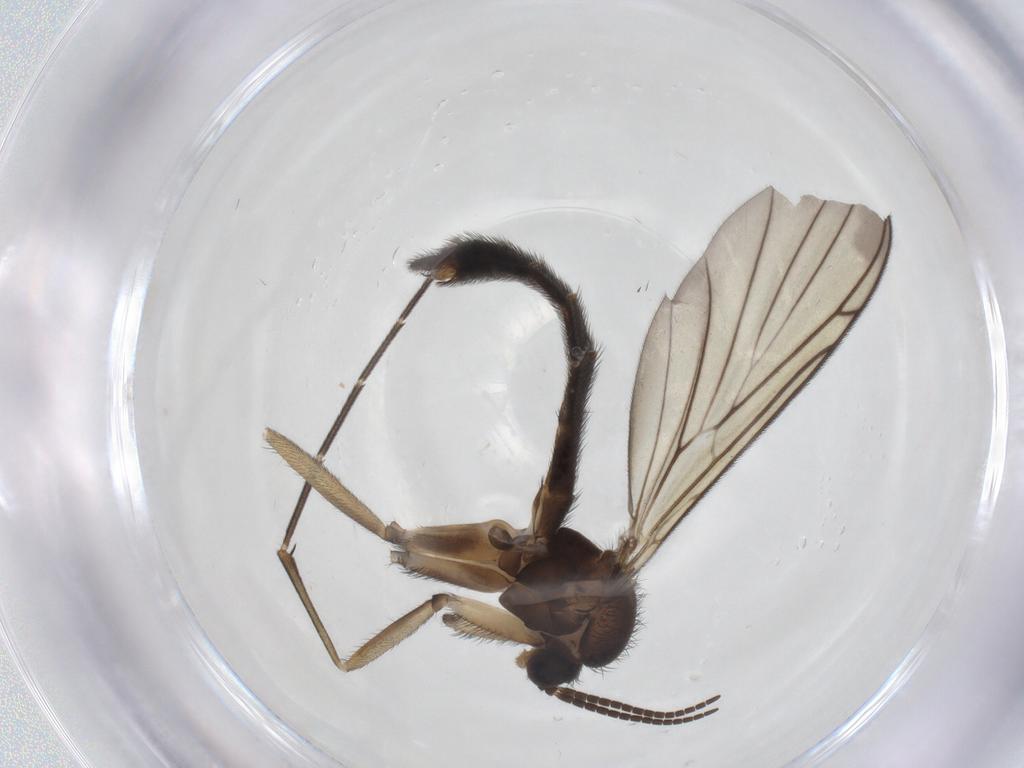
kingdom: Animalia
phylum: Arthropoda
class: Insecta
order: Diptera
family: Keroplatidae
